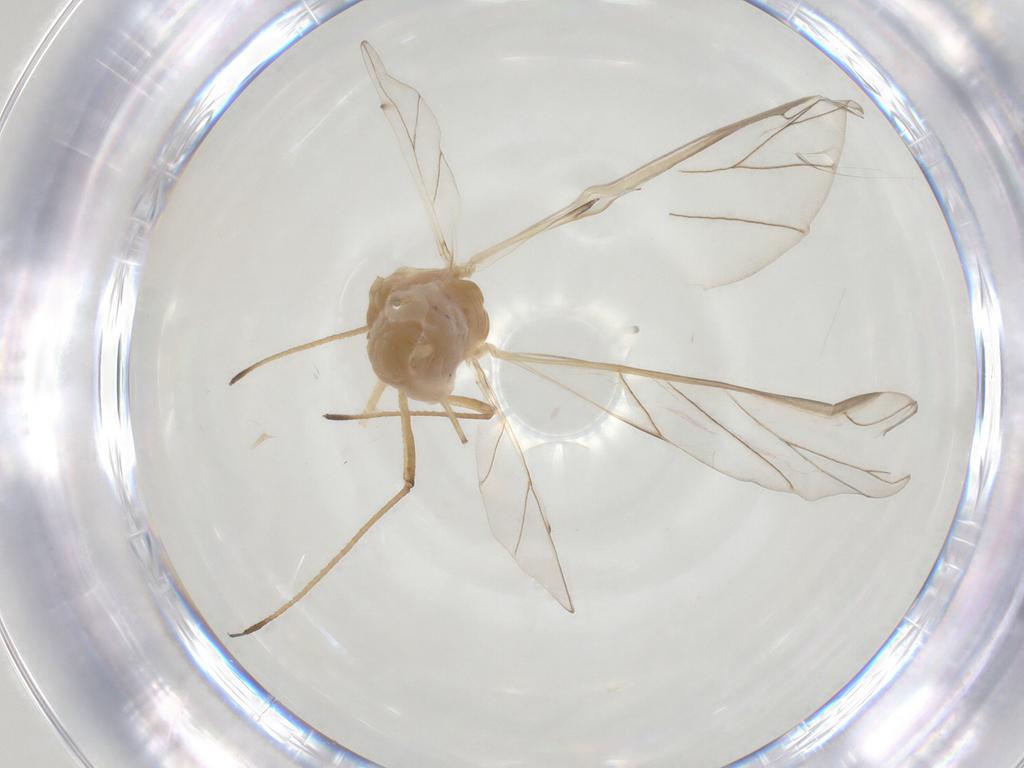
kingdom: Animalia
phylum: Arthropoda
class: Insecta
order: Hemiptera
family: Aphididae
